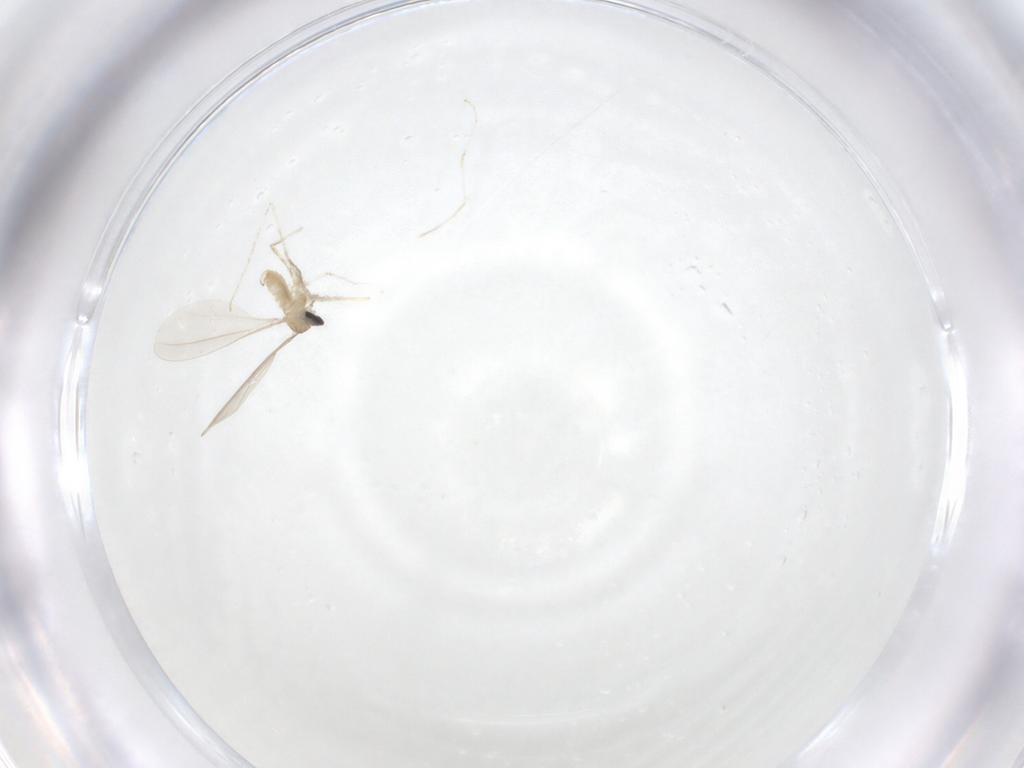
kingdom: Animalia
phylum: Arthropoda
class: Insecta
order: Diptera
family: Cecidomyiidae
